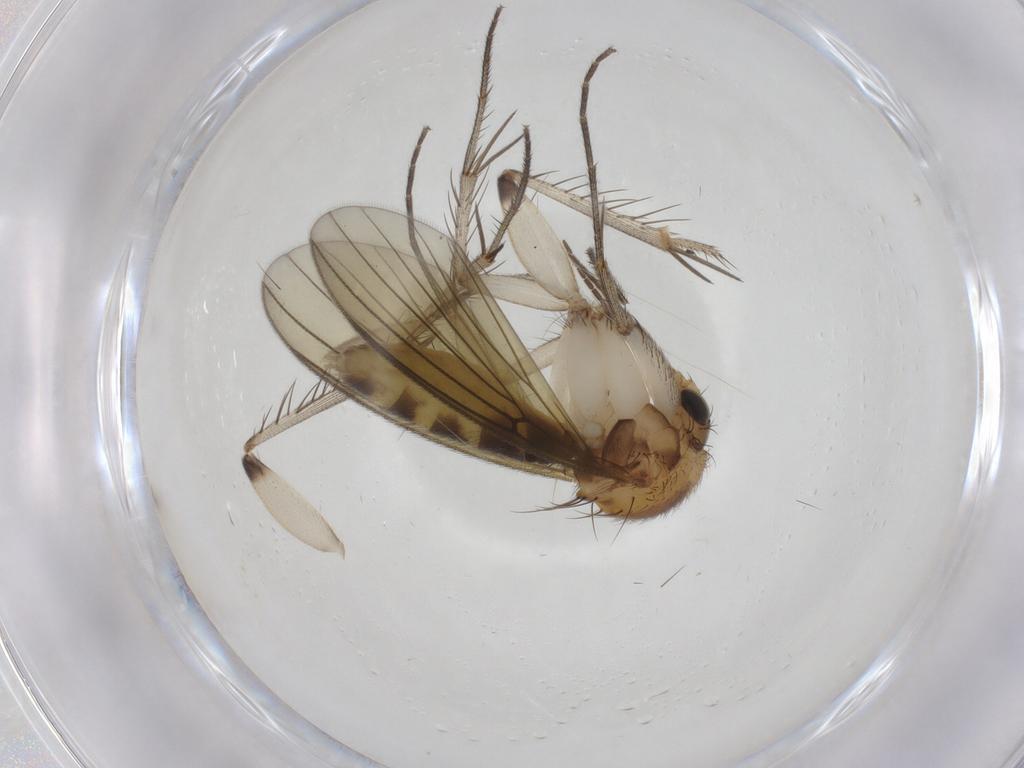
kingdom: Animalia
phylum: Arthropoda
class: Insecta
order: Diptera
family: Mycetophilidae
